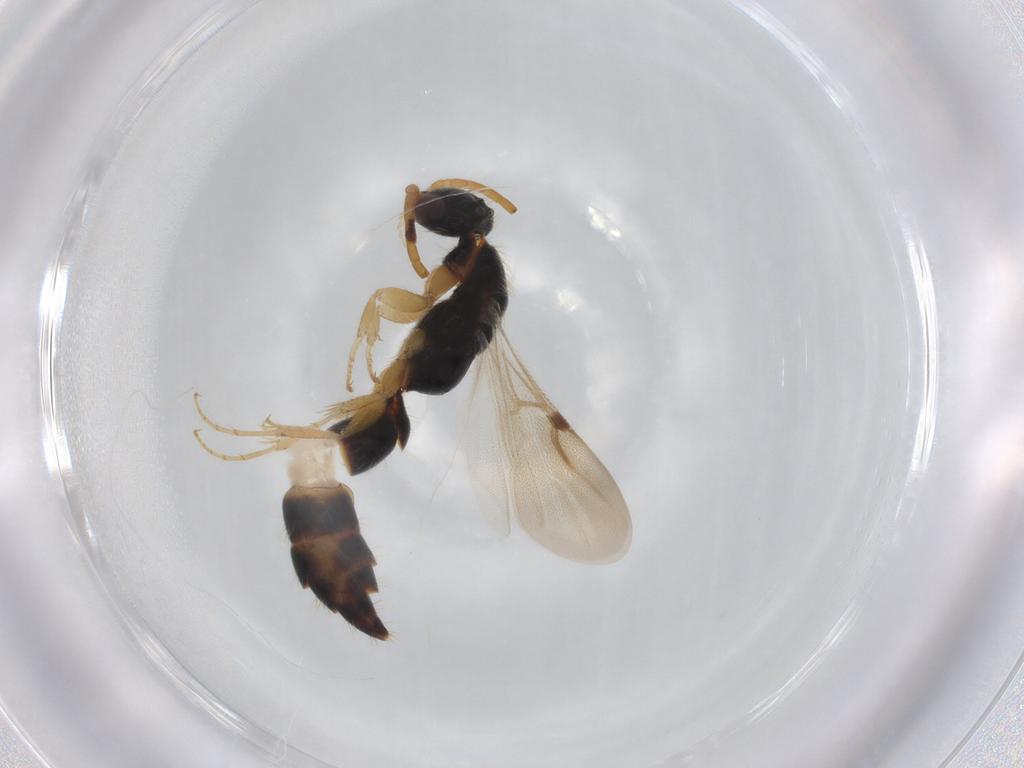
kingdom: Animalia
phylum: Arthropoda
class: Insecta
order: Hymenoptera
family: Bethylidae
